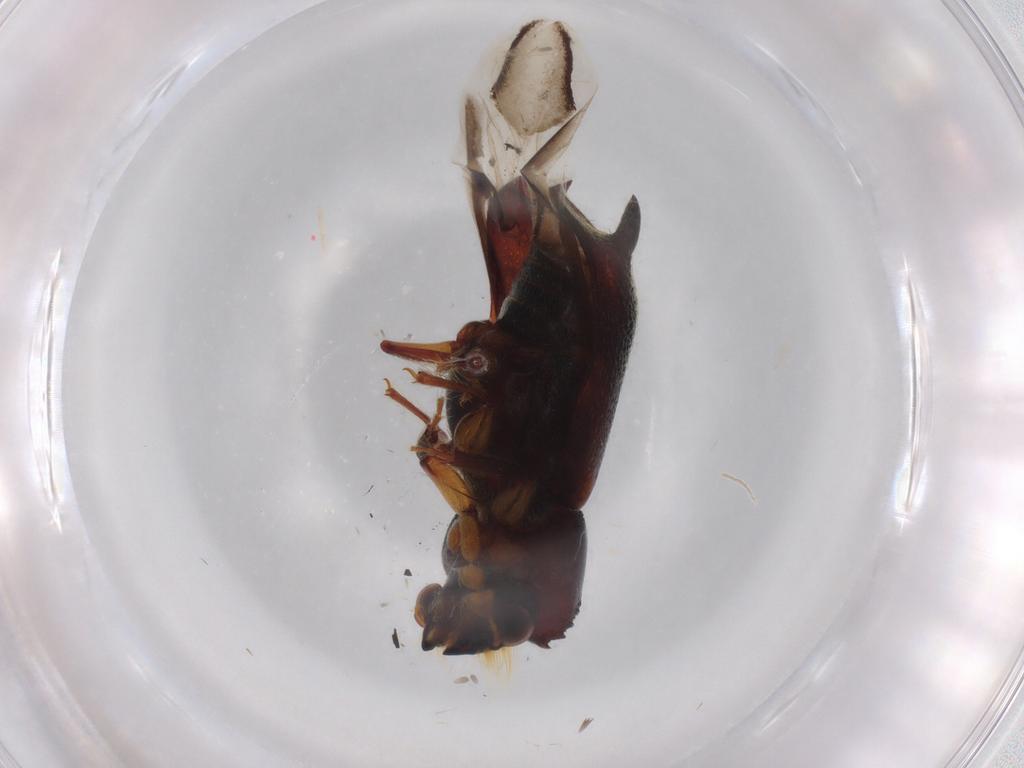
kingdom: Animalia
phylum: Arthropoda
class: Insecta
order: Coleoptera
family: Bostrichidae
